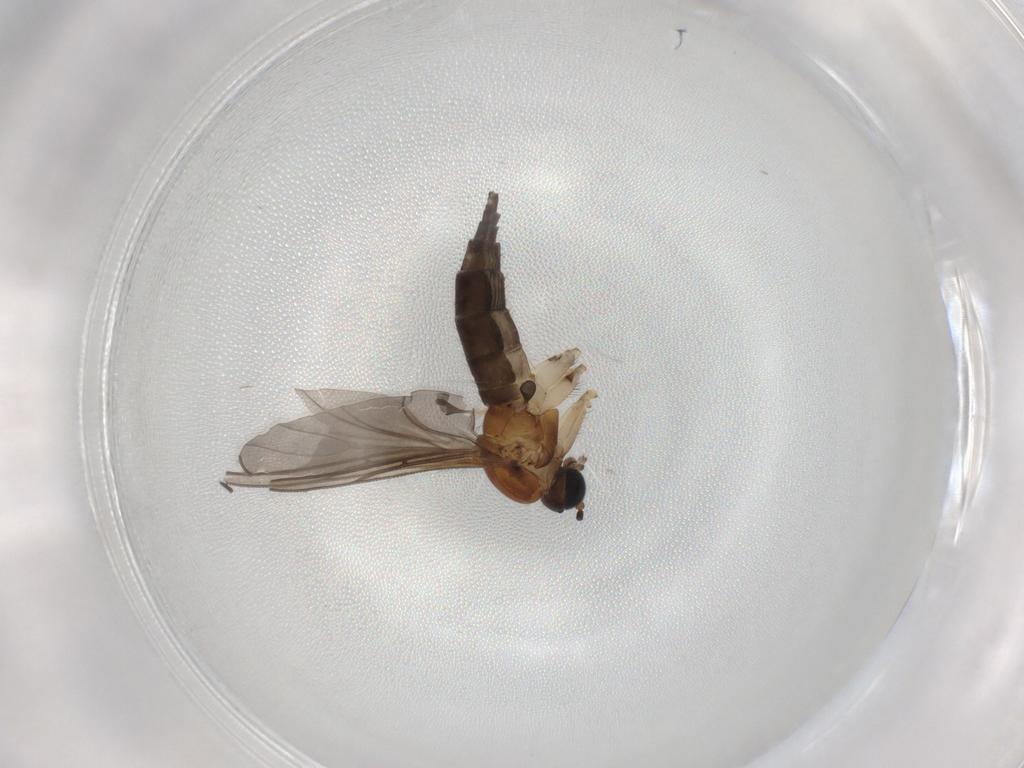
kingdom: Animalia
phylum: Arthropoda
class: Insecta
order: Diptera
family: Sciaridae
